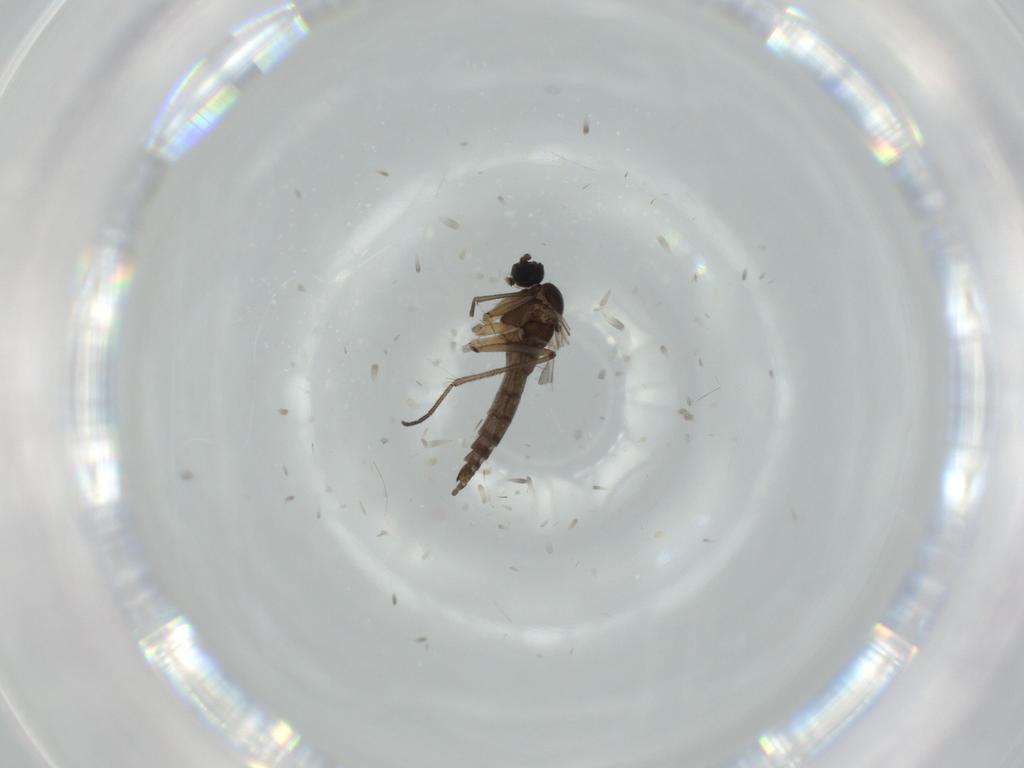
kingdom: Animalia
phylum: Arthropoda
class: Insecta
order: Diptera
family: Sciaridae
